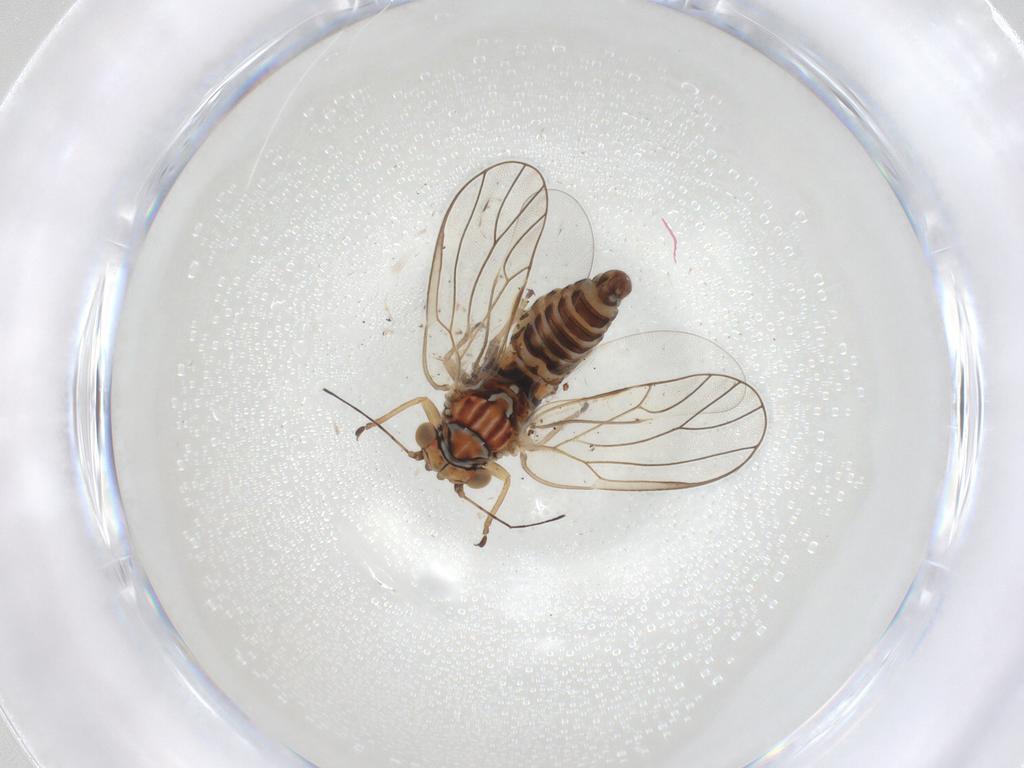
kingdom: Animalia
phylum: Arthropoda
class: Insecta
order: Hemiptera
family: Psyllidae
